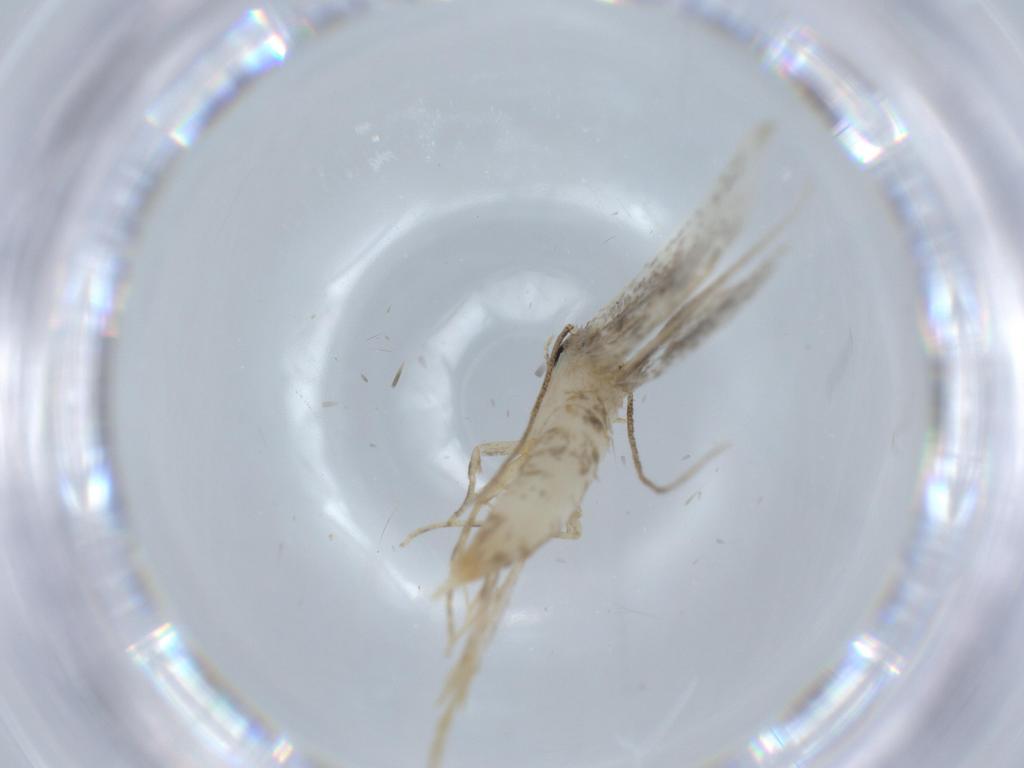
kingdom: Animalia
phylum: Arthropoda
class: Insecta
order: Lepidoptera
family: Tineidae
